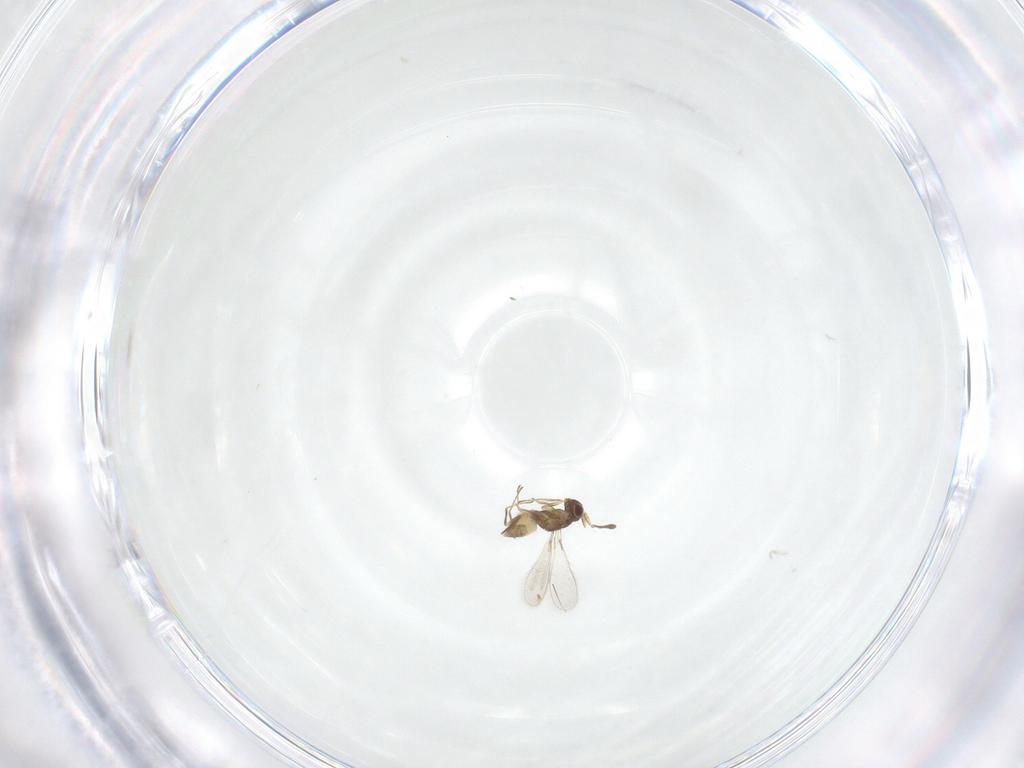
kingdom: Animalia
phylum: Arthropoda
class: Insecta
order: Hymenoptera
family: Mymaridae
